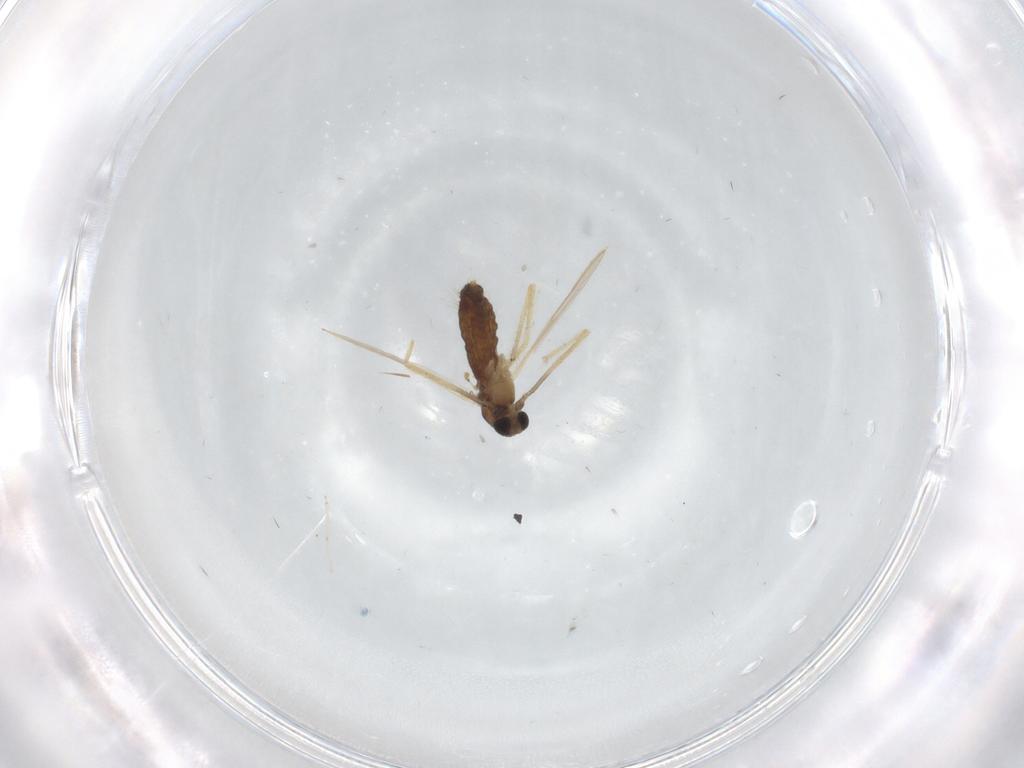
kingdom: Animalia
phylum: Arthropoda
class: Insecta
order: Diptera
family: Chironomidae
